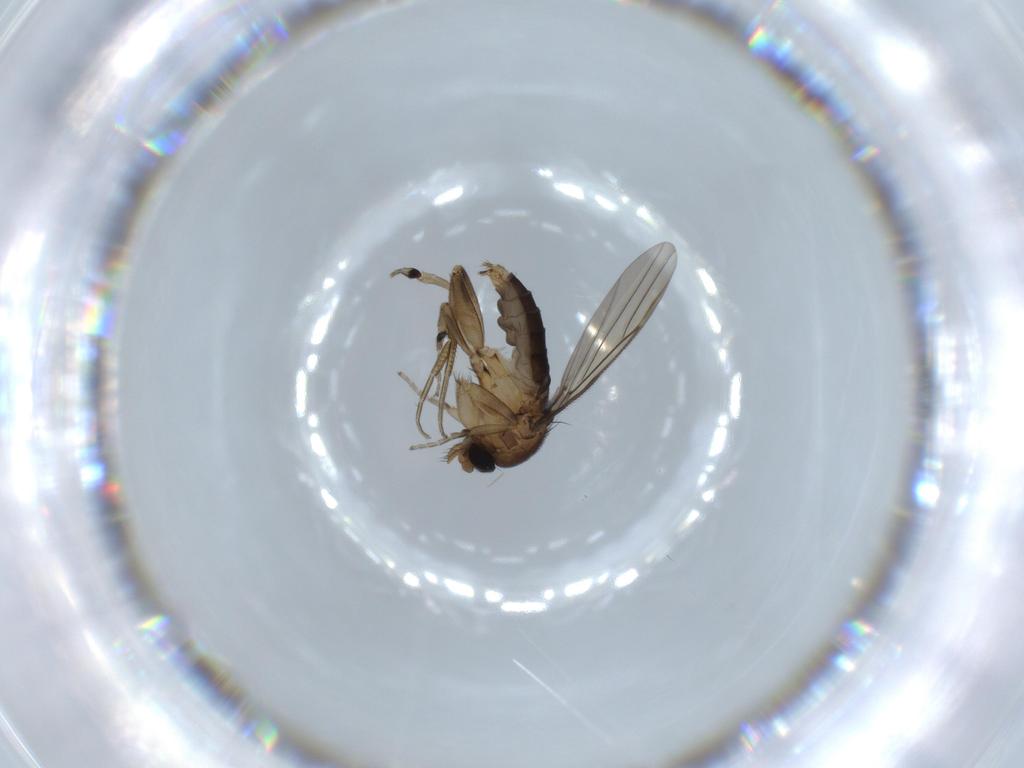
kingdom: Animalia
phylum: Arthropoda
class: Insecta
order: Diptera
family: Phoridae
